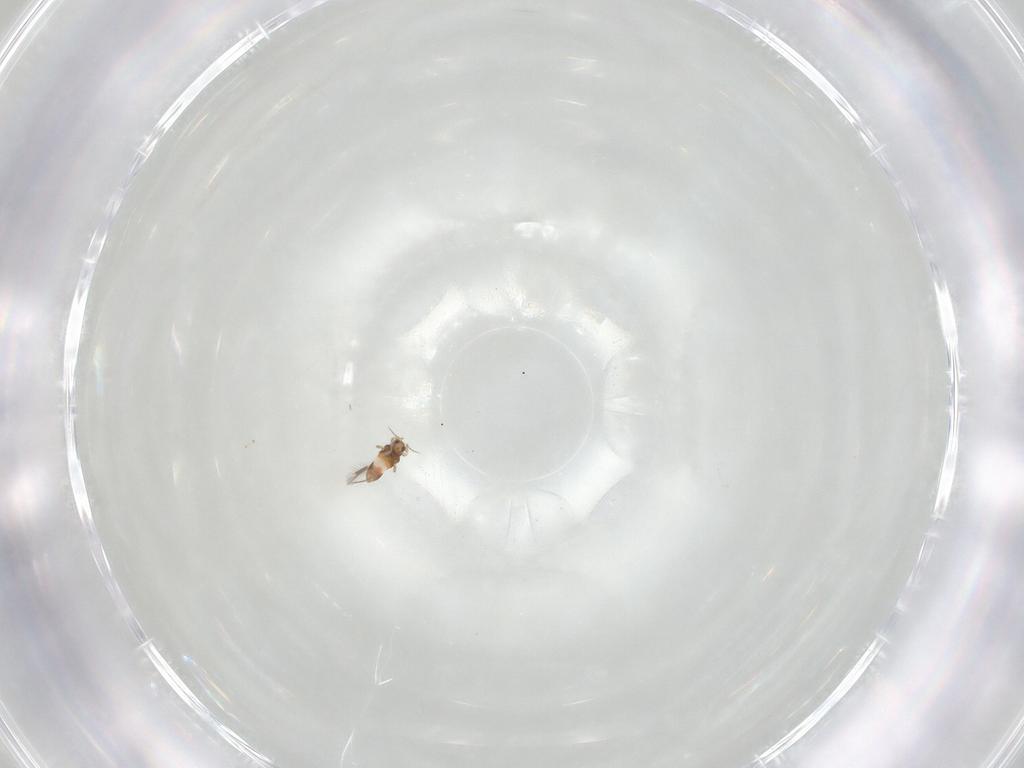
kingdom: Animalia
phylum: Arthropoda
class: Insecta
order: Thysanoptera
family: Thripidae
